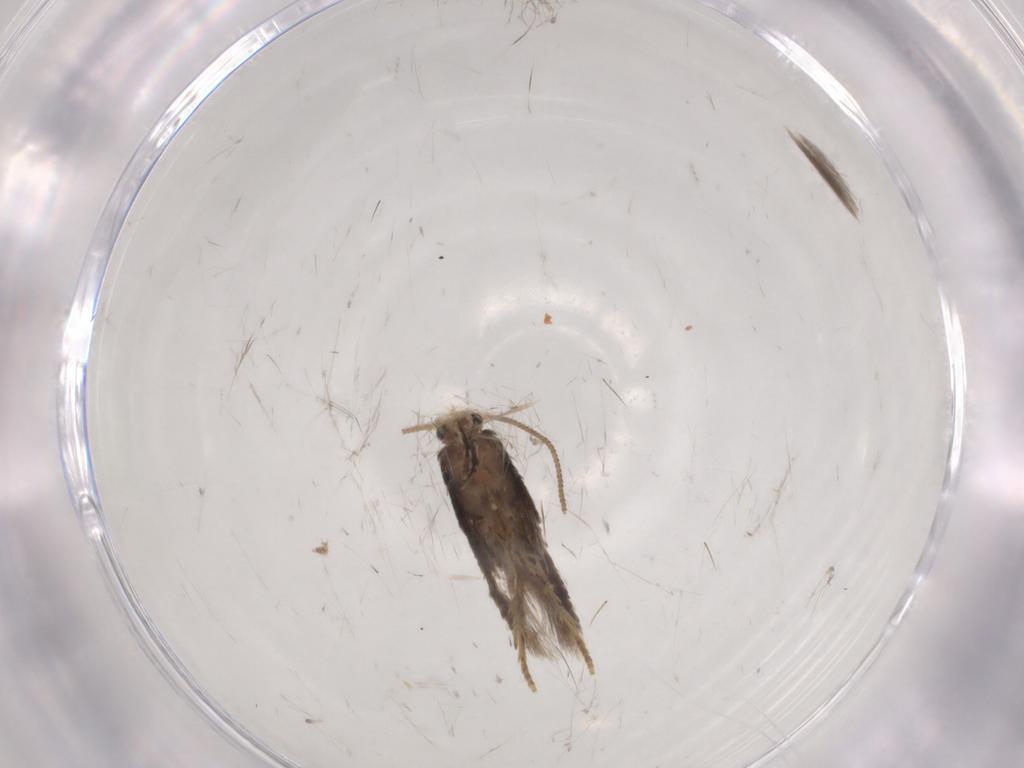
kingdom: Animalia
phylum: Arthropoda
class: Insecta
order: Lepidoptera
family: Nepticulidae
